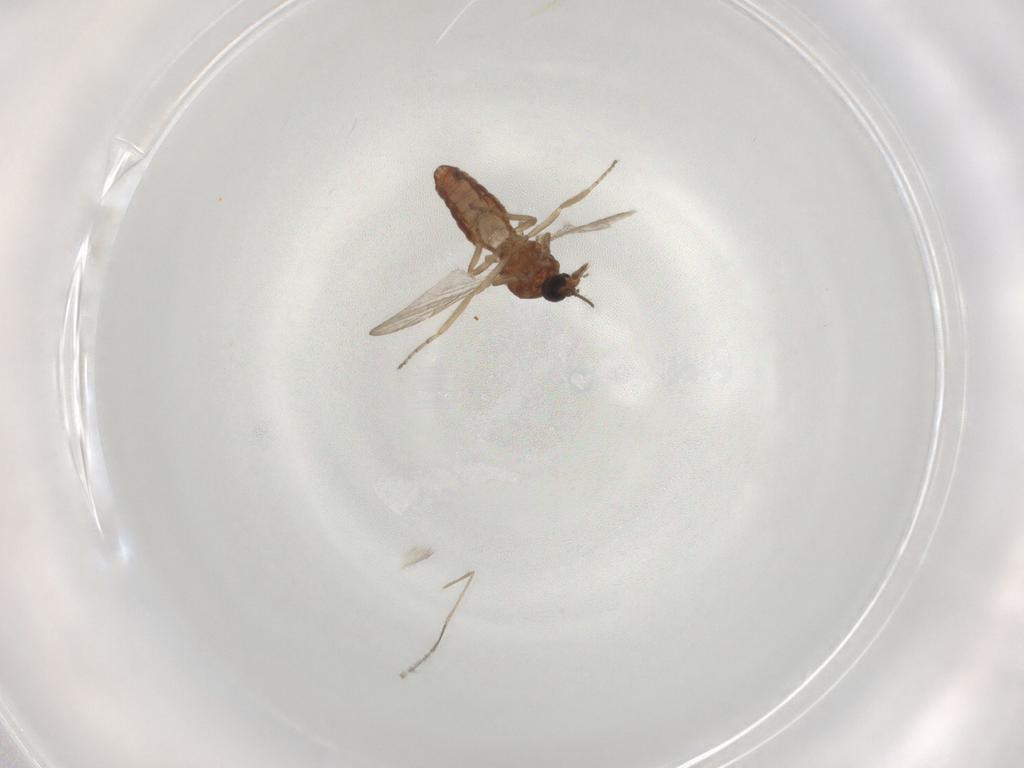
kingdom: Animalia
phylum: Arthropoda
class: Insecta
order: Diptera
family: Ceratopogonidae
